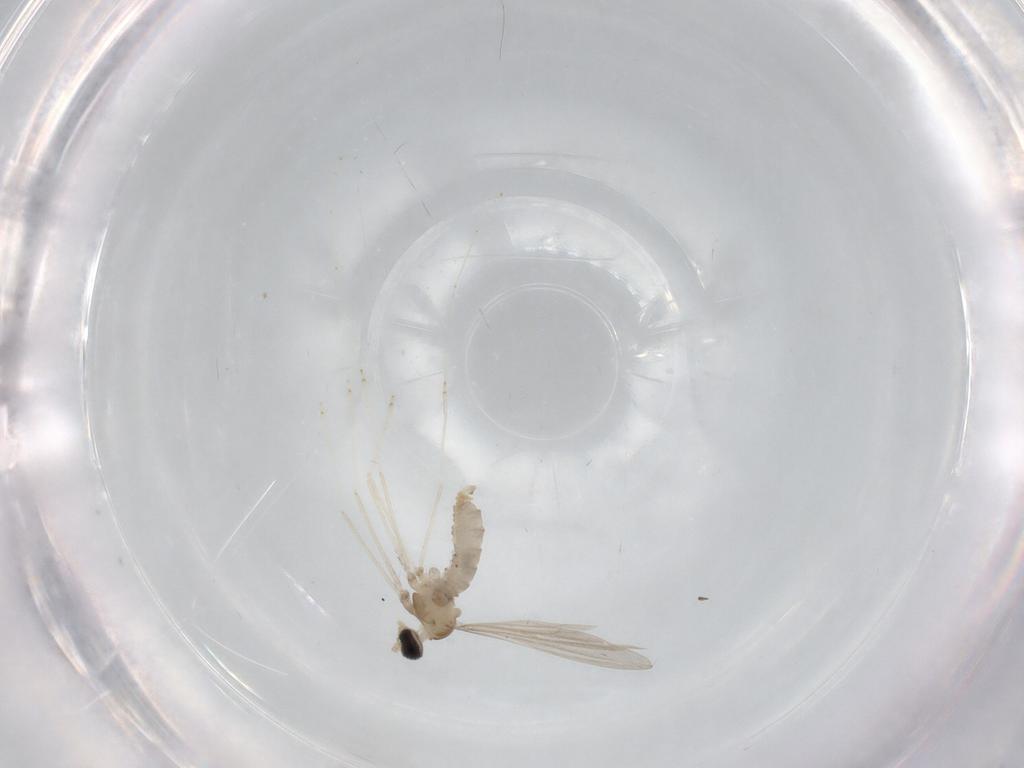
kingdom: Animalia
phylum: Arthropoda
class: Insecta
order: Diptera
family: Cecidomyiidae
